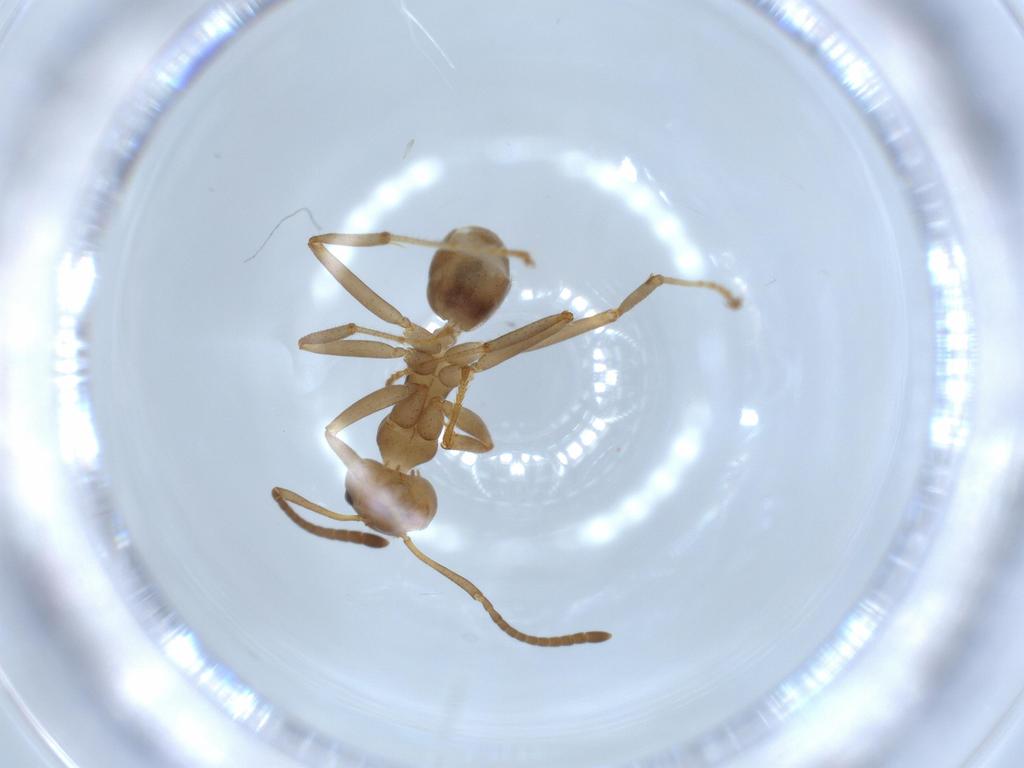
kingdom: Animalia
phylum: Arthropoda
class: Insecta
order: Hymenoptera
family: Formicidae
